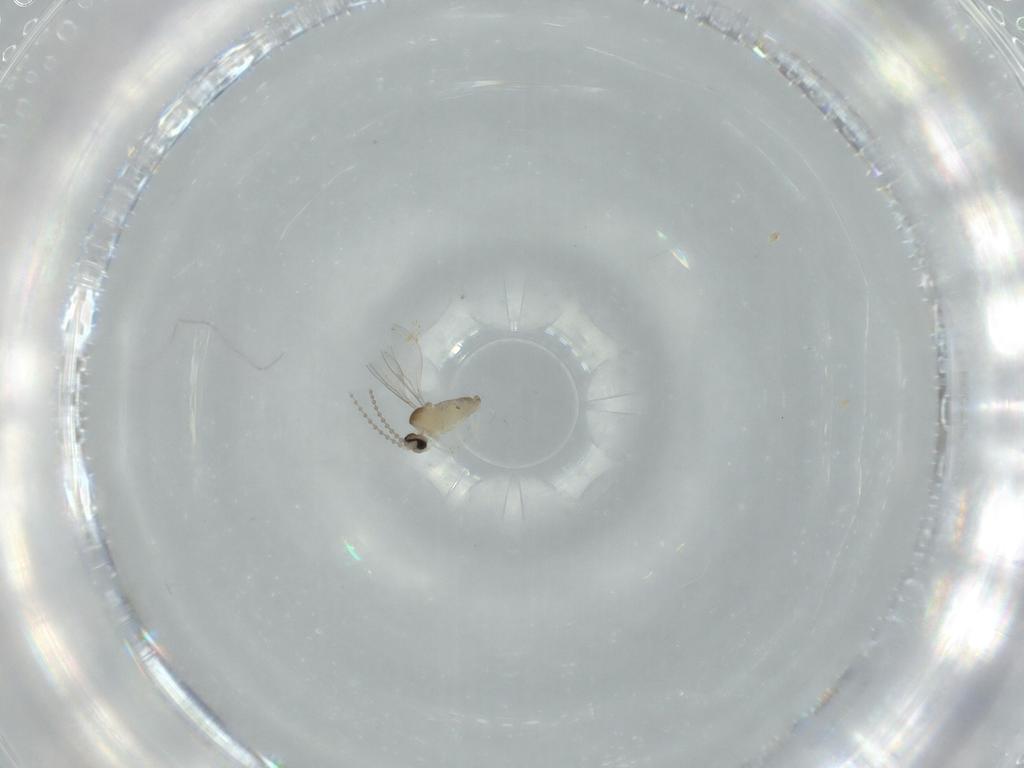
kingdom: Animalia
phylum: Arthropoda
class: Insecta
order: Diptera
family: Cecidomyiidae
